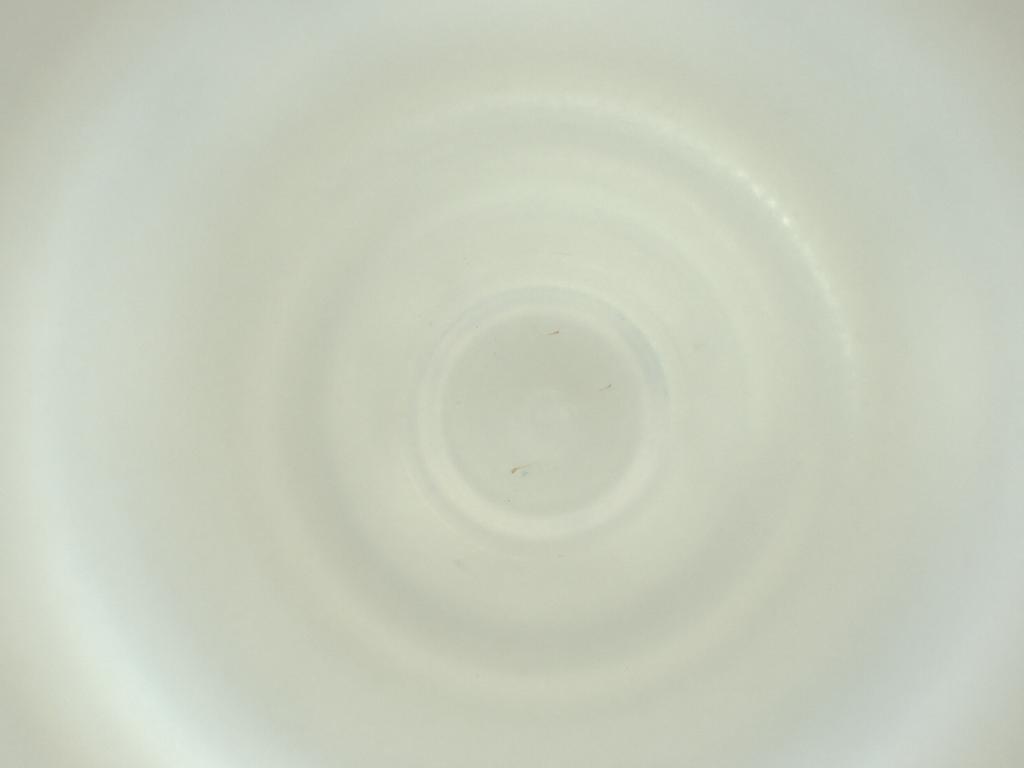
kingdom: Animalia
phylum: Arthropoda
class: Insecta
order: Diptera
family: Cecidomyiidae
